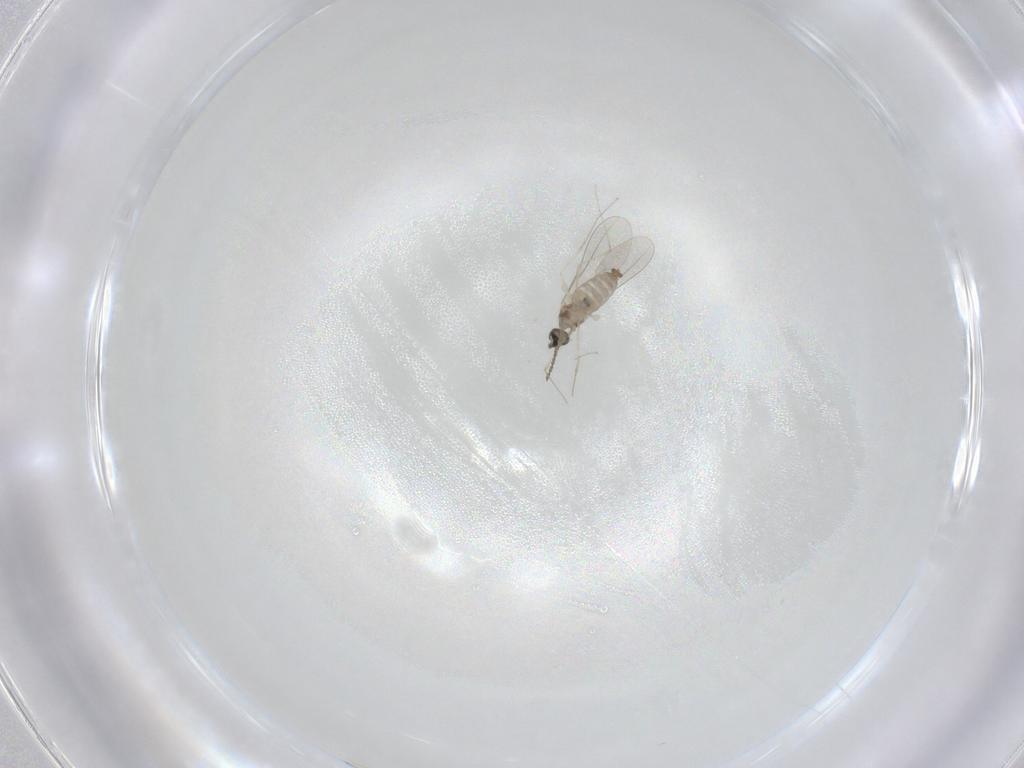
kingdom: Animalia
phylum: Arthropoda
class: Insecta
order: Diptera
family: Cecidomyiidae
